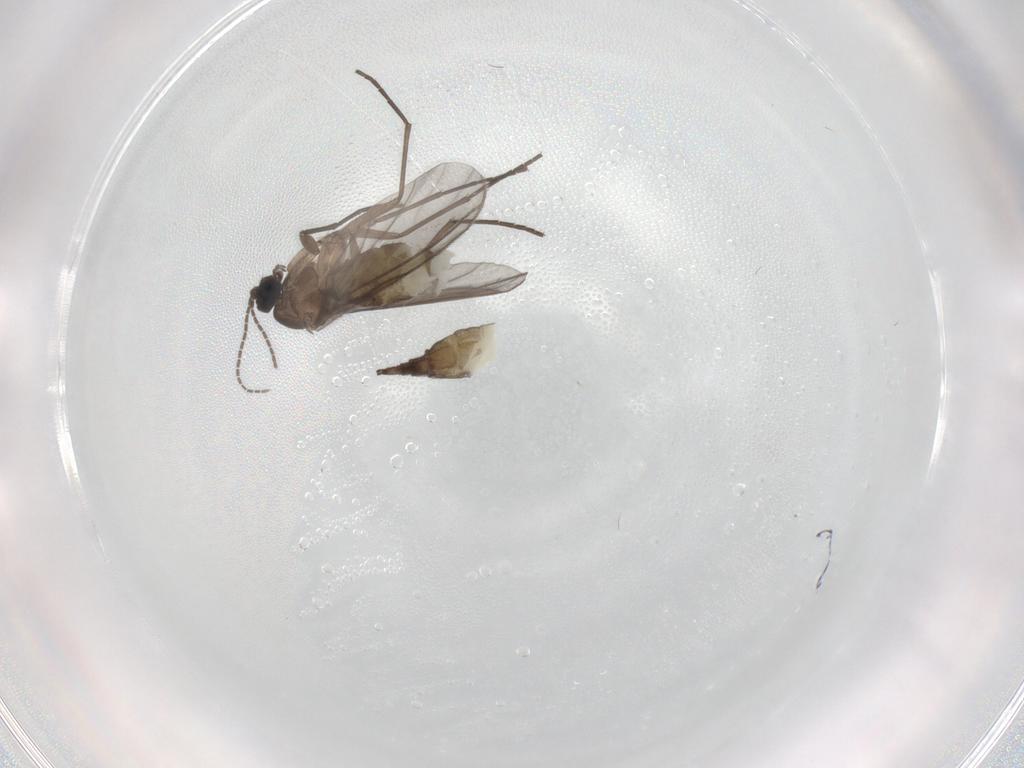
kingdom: Animalia
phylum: Arthropoda
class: Insecta
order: Diptera
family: Sciaridae
